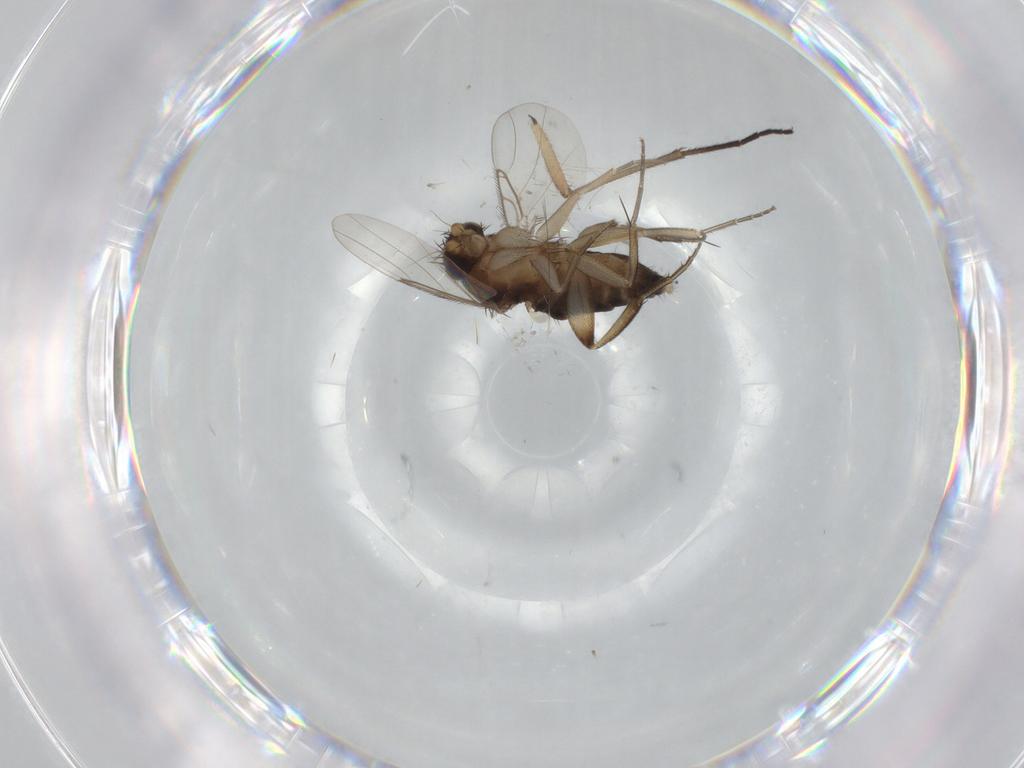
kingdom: Animalia
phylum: Arthropoda
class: Insecta
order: Diptera
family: Phoridae
